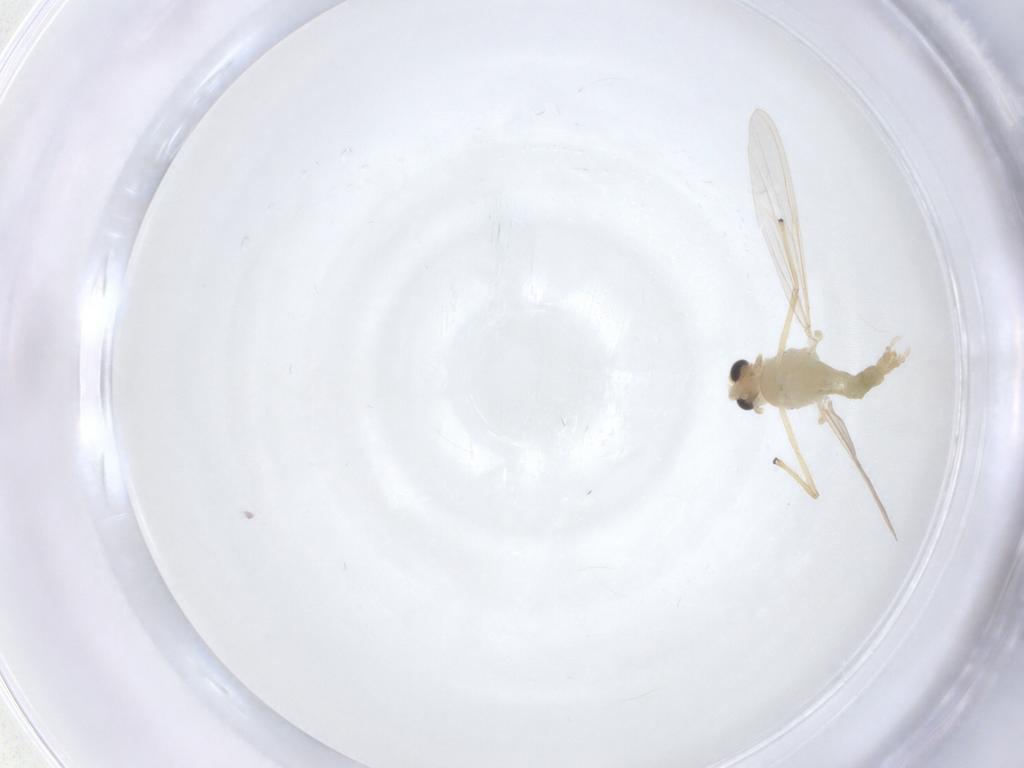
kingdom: Animalia
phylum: Arthropoda
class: Insecta
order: Diptera
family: Chironomidae
